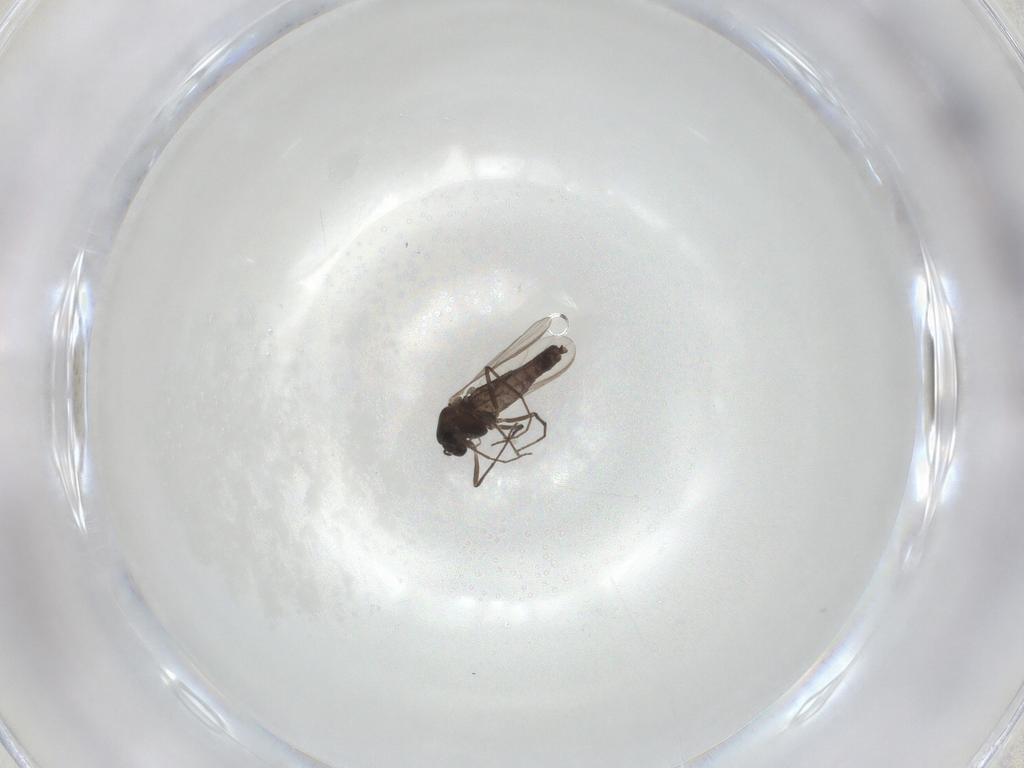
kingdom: Animalia
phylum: Arthropoda
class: Insecta
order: Diptera
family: Chironomidae
